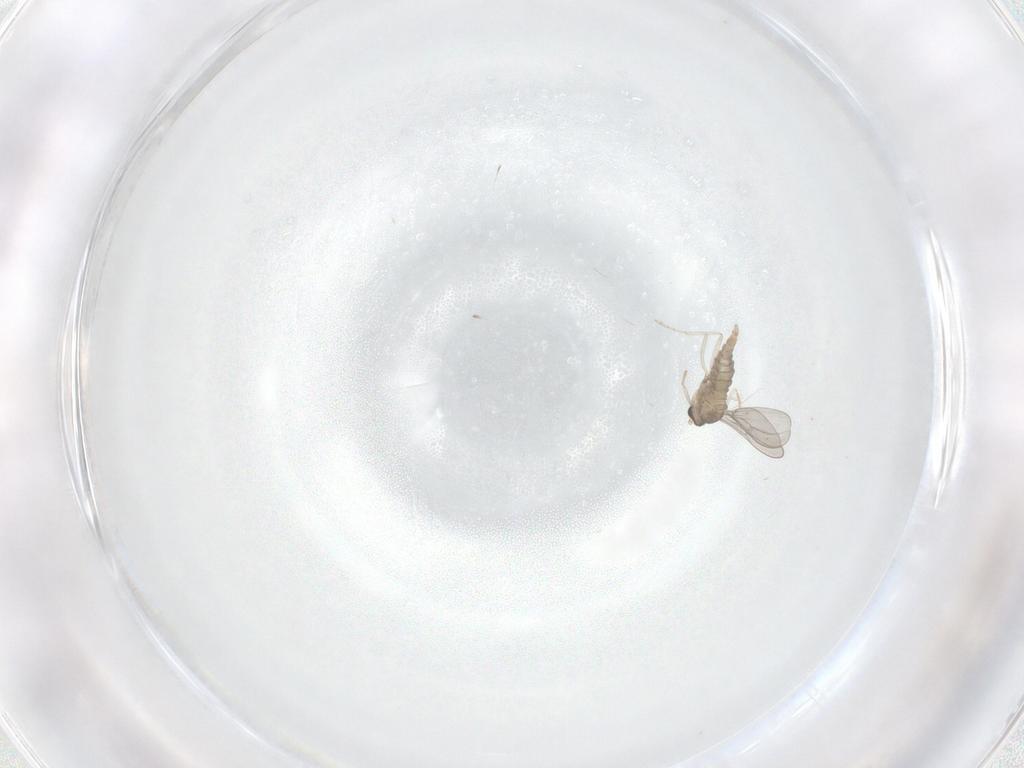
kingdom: Animalia
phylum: Arthropoda
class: Insecta
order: Diptera
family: Cecidomyiidae
